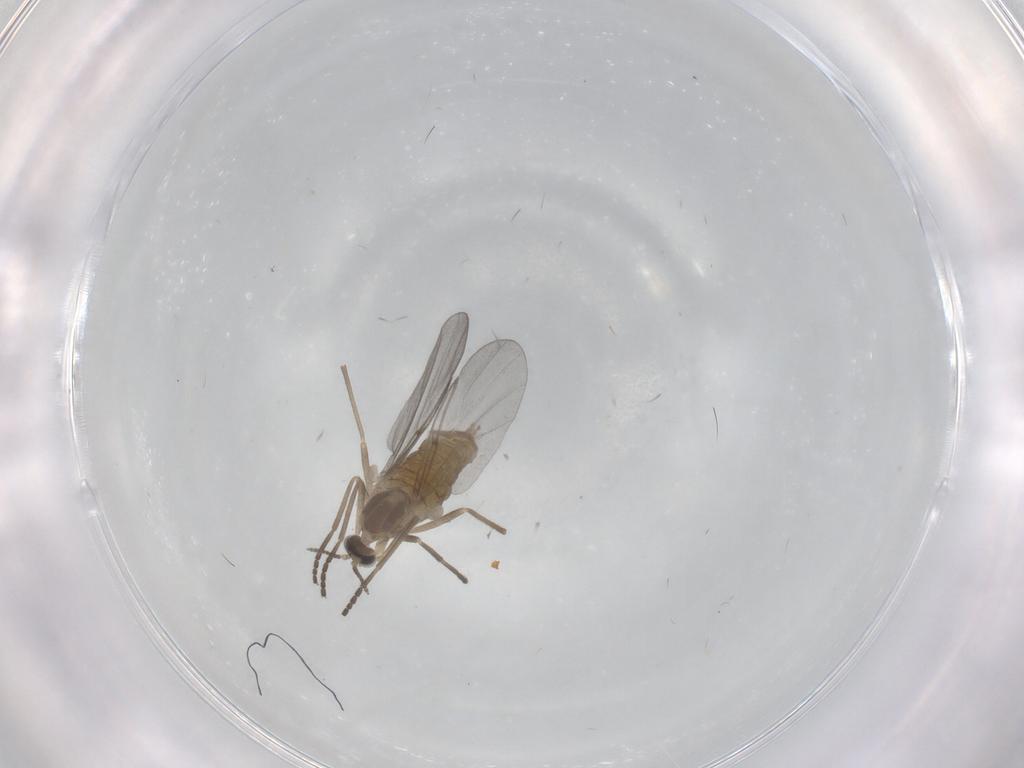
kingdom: Animalia
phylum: Arthropoda
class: Insecta
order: Diptera
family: Cecidomyiidae
